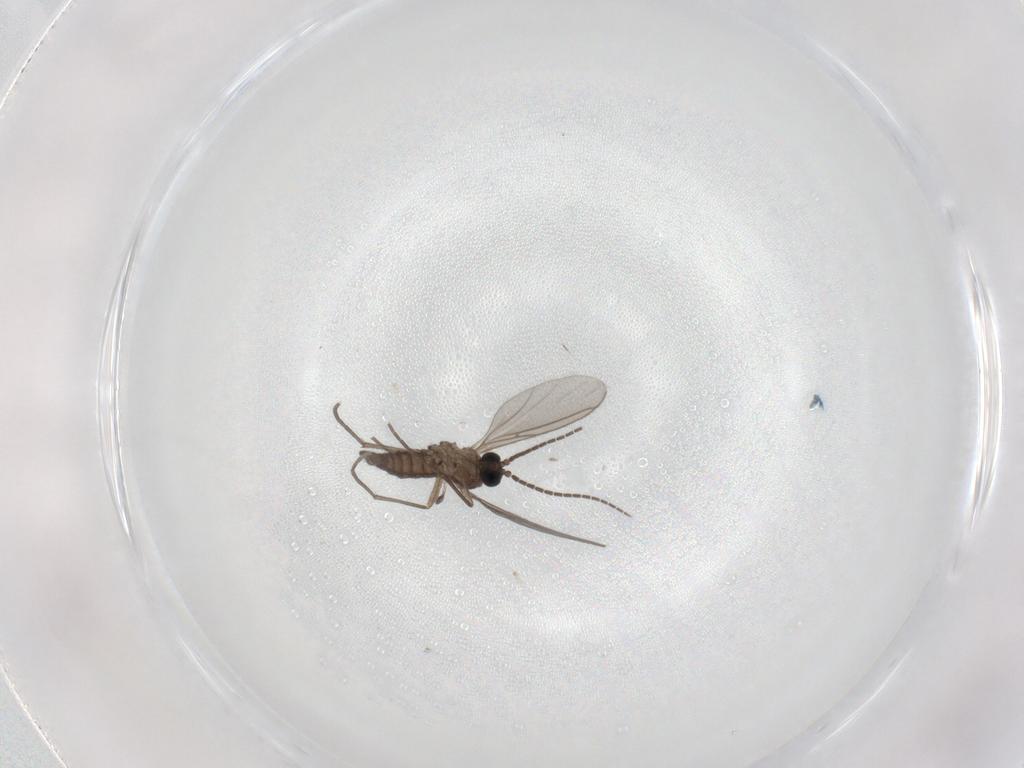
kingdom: Animalia
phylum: Arthropoda
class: Insecta
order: Diptera
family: Sciaridae
